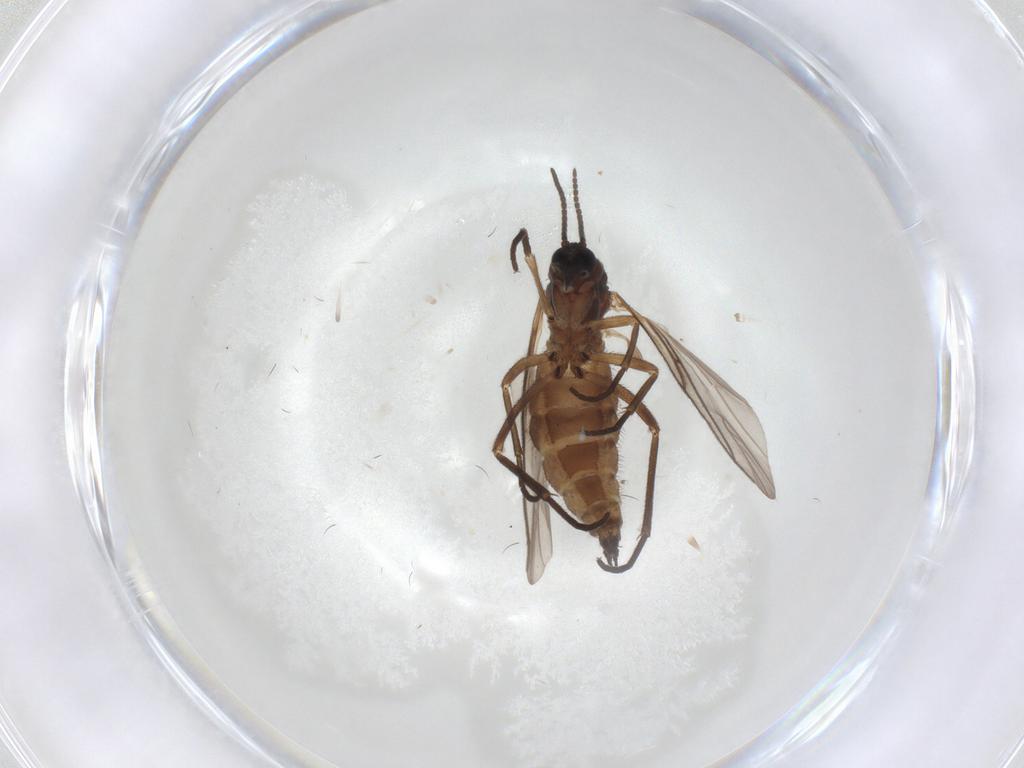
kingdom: Animalia
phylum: Arthropoda
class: Insecta
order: Diptera
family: Sciaridae
